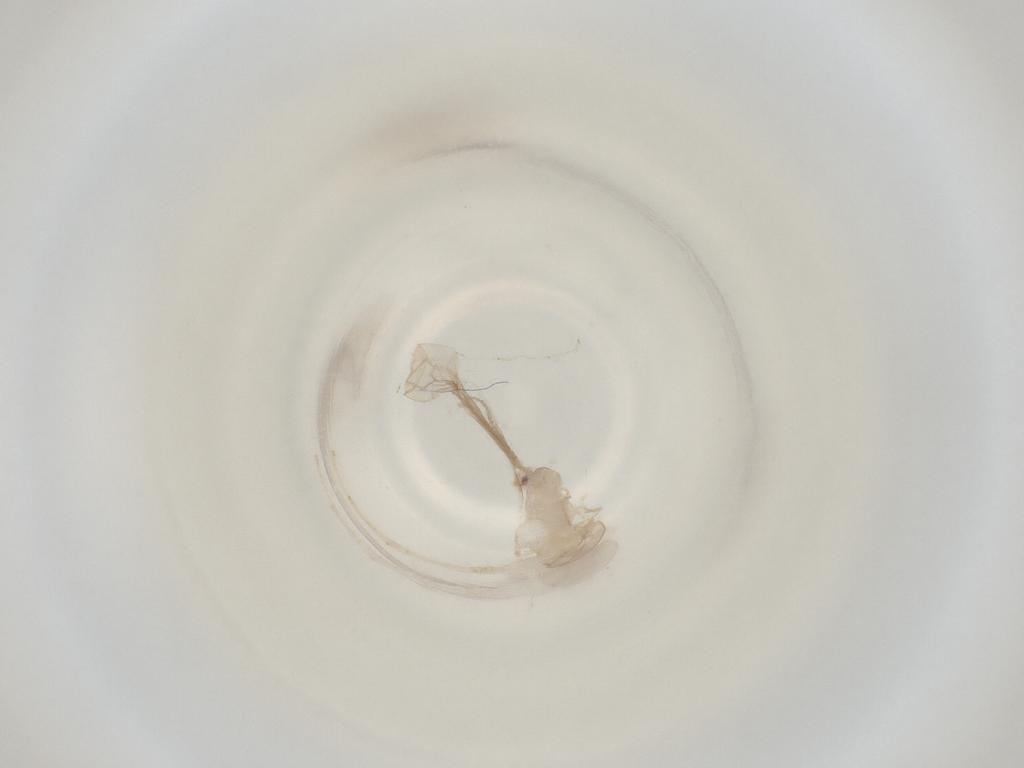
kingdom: Animalia
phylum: Arthropoda
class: Insecta
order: Diptera
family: Cecidomyiidae
